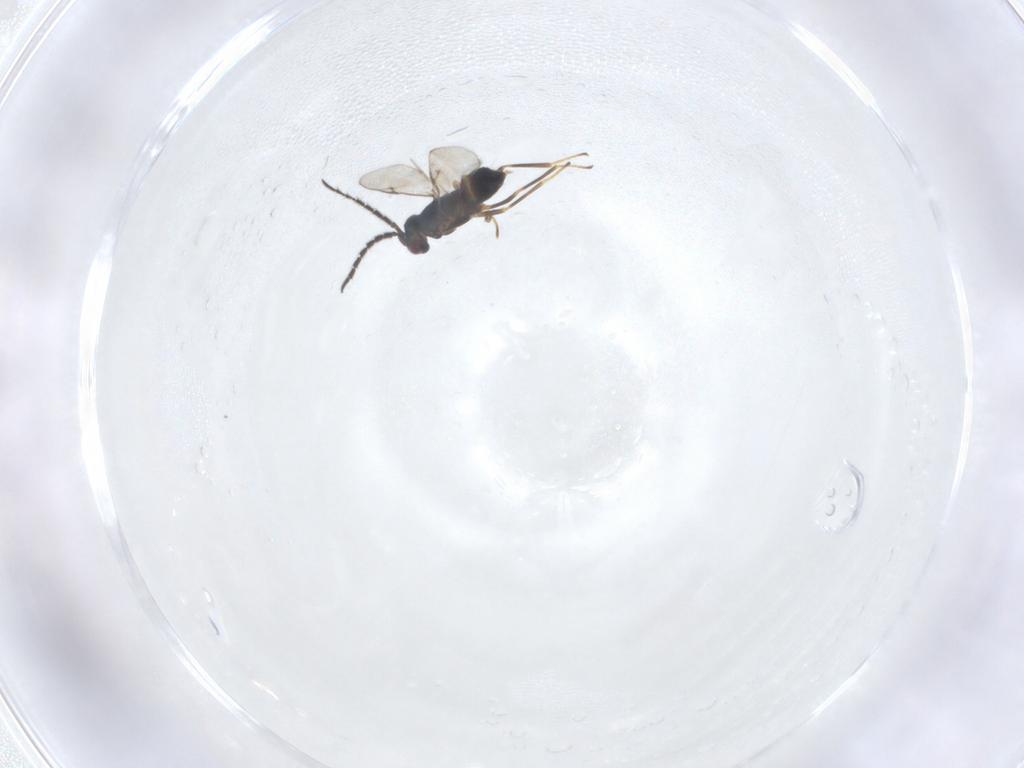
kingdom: Animalia
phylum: Arthropoda
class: Insecta
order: Hymenoptera
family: Encyrtidae
